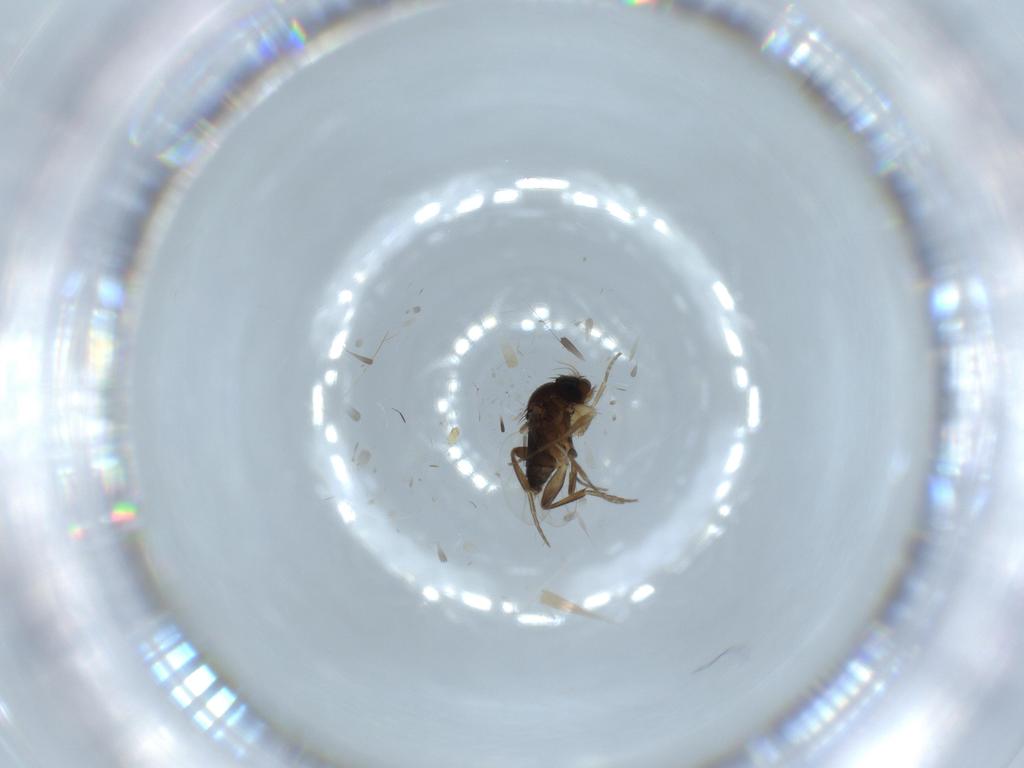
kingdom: Animalia
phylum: Arthropoda
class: Insecta
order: Diptera
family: Phoridae
